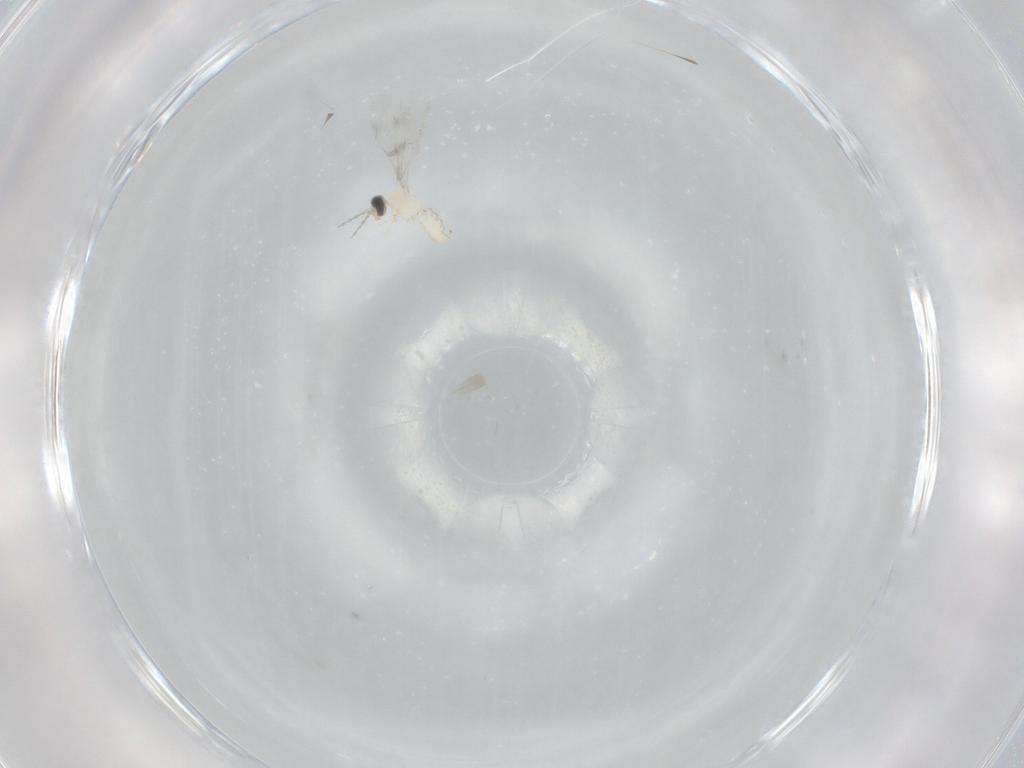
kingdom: Animalia
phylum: Arthropoda
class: Insecta
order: Diptera
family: Cecidomyiidae
